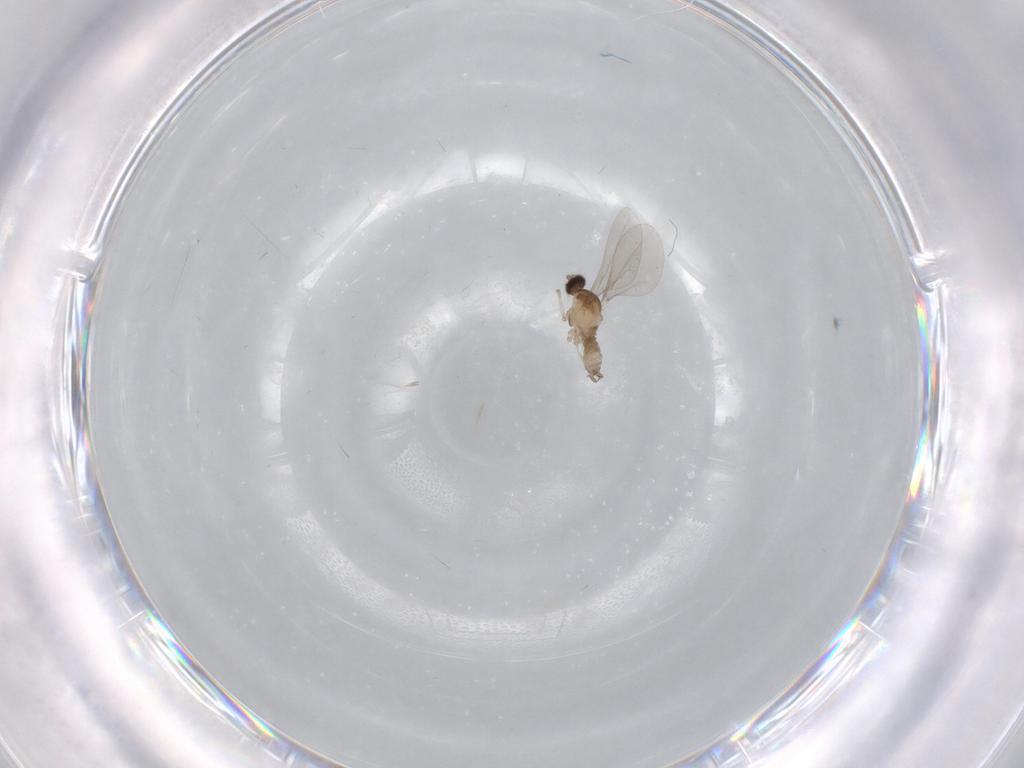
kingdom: Animalia
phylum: Arthropoda
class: Insecta
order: Diptera
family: Cecidomyiidae
